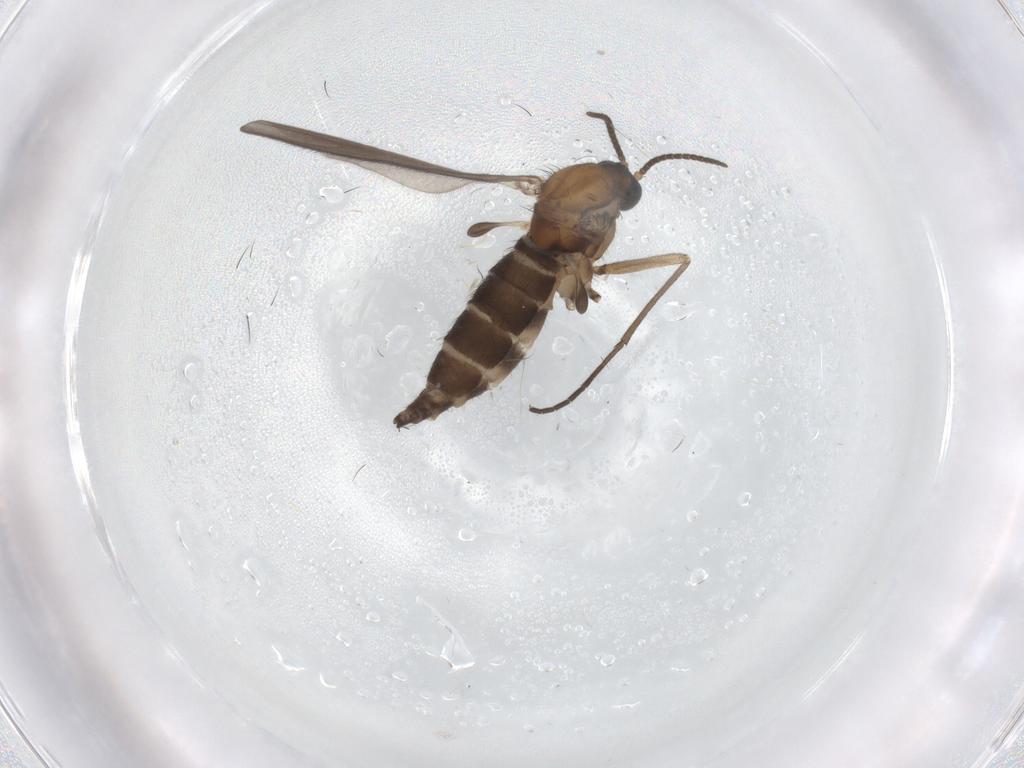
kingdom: Animalia
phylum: Arthropoda
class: Insecta
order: Diptera
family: Sciaridae
